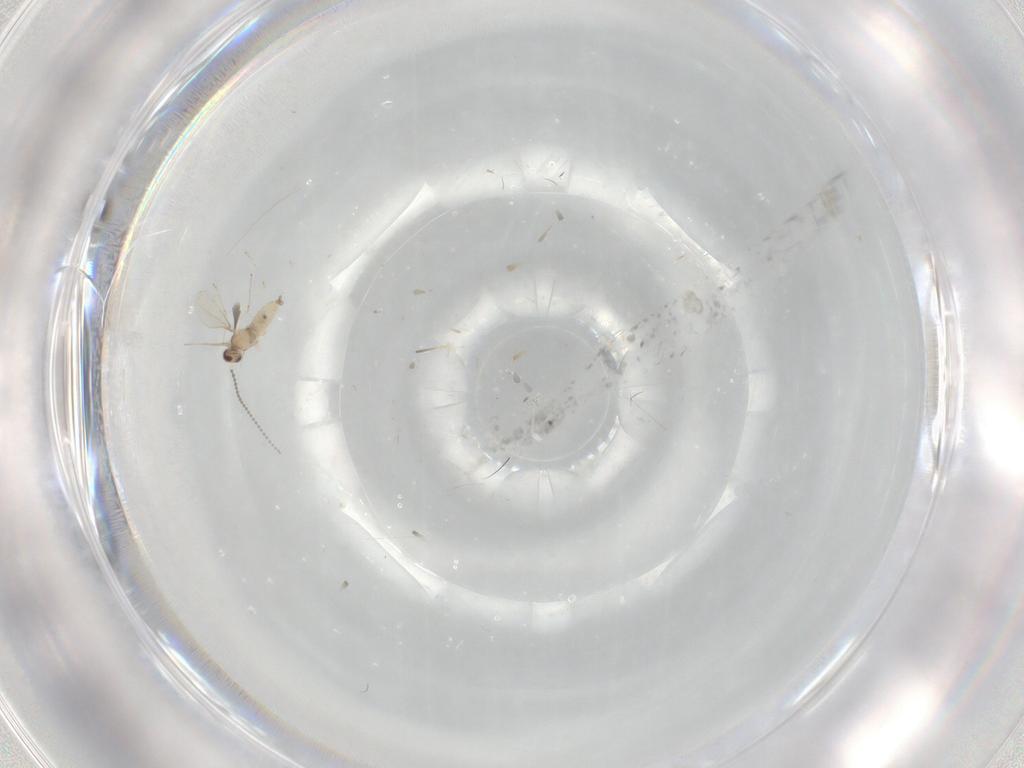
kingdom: Animalia
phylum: Arthropoda
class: Insecta
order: Diptera
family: Cecidomyiidae
